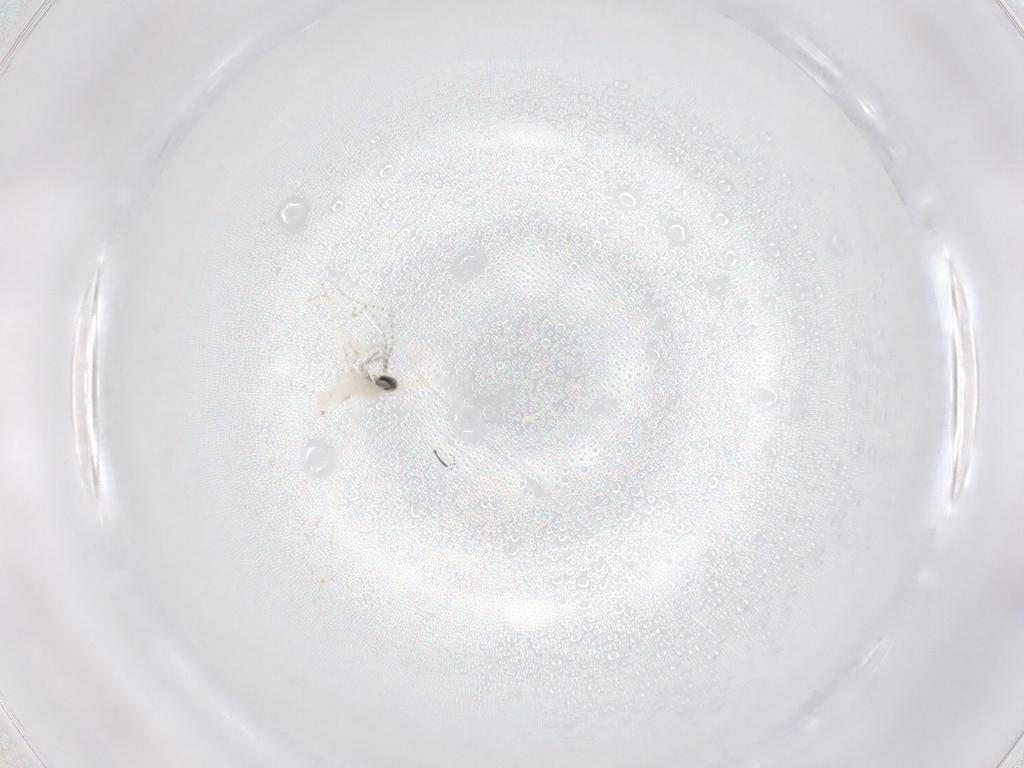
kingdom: Animalia
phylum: Arthropoda
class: Insecta
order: Diptera
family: Cecidomyiidae
